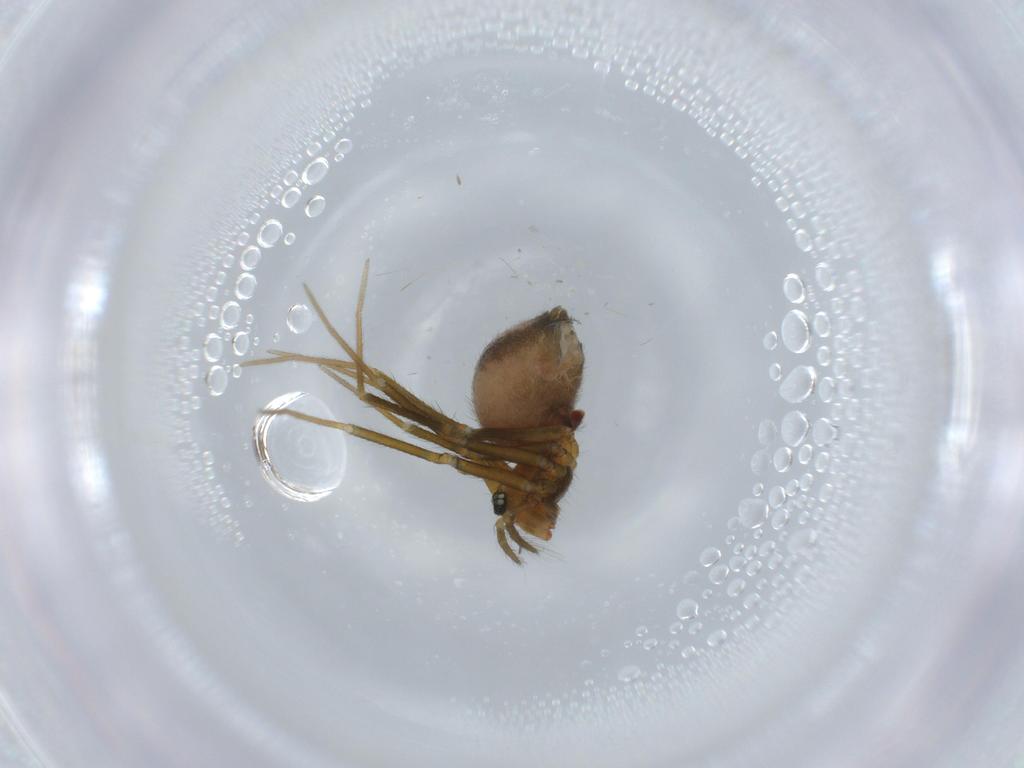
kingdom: Animalia
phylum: Arthropoda
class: Arachnida
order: Araneae
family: Linyphiidae
